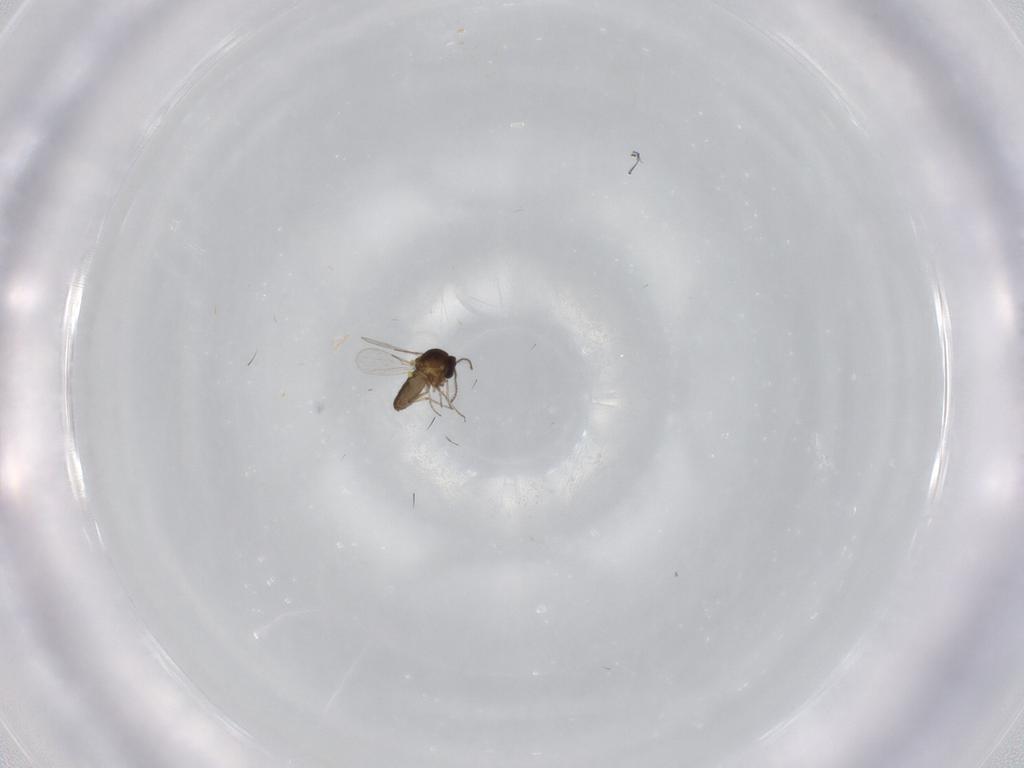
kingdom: Animalia
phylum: Arthropoda
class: Insecta
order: Diptera
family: Ceratopogonidae
